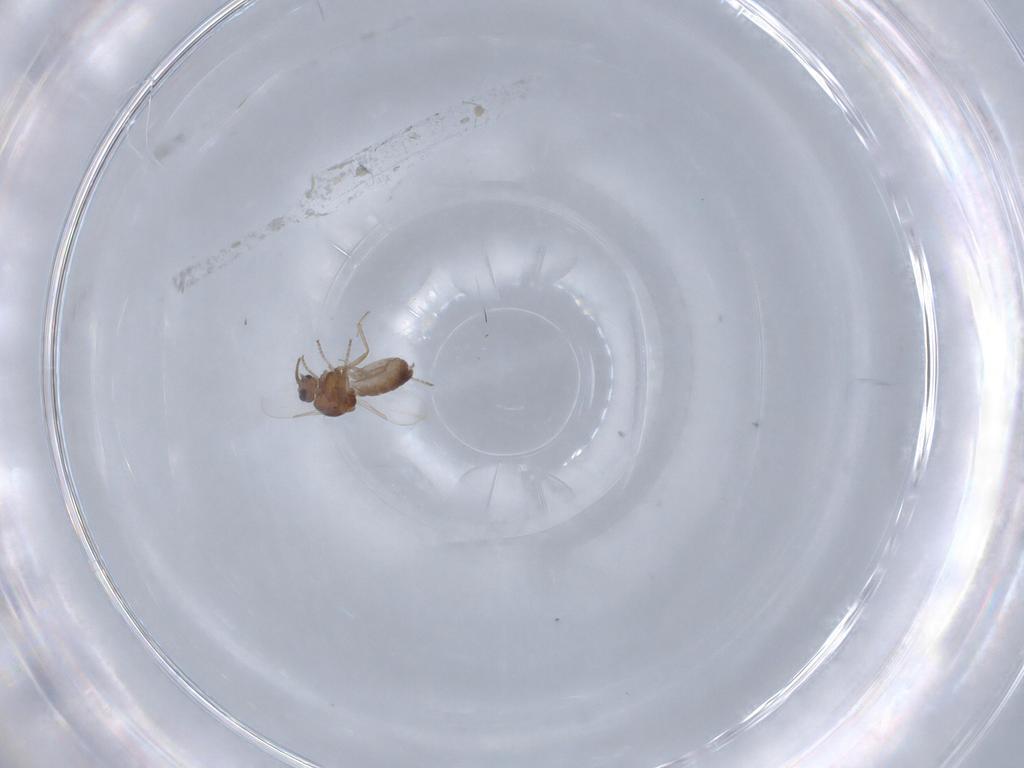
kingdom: Animalia
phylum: Arthropoda
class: Insecta
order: Diptera
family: Ceratopogonidae
